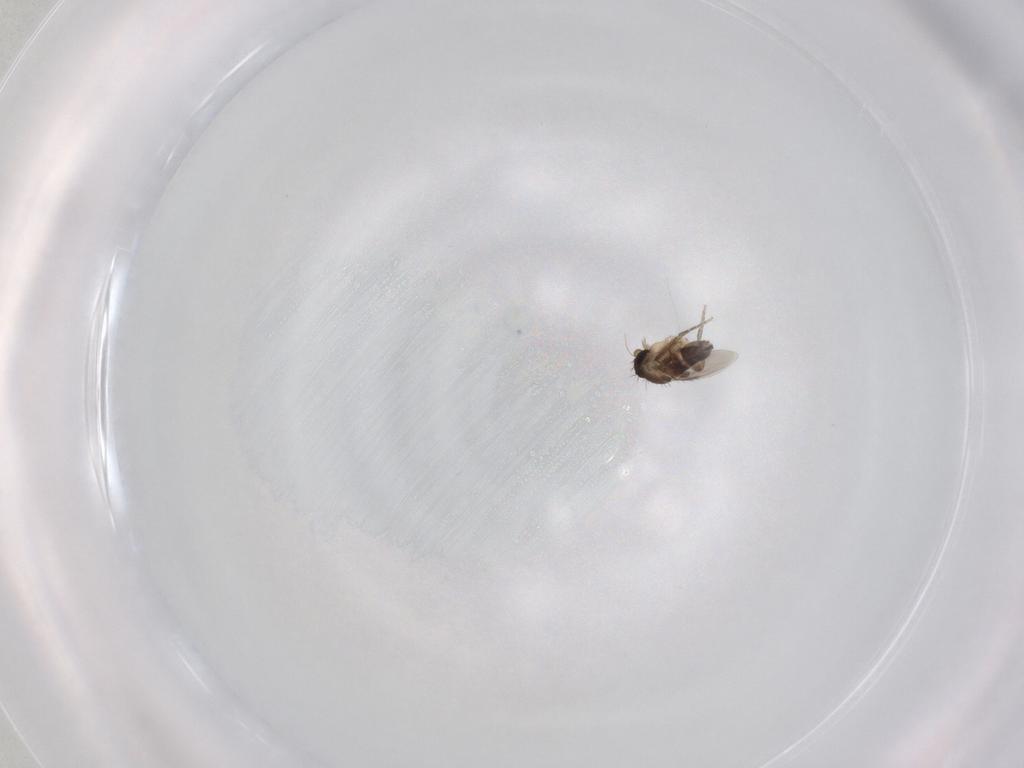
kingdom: Animalia
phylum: Arthropoda
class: Insecta
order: Diptera
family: Phoridae
